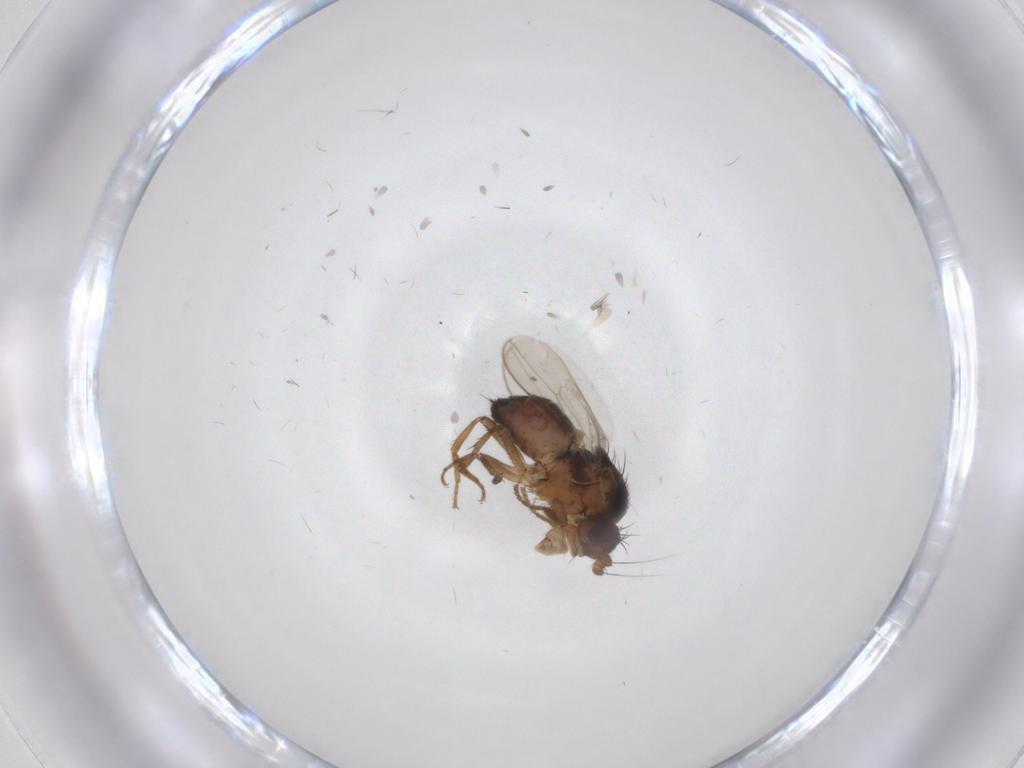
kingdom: Animalia
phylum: Arthropoda
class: Insecta
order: Diptera
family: Sphaeroceridae
